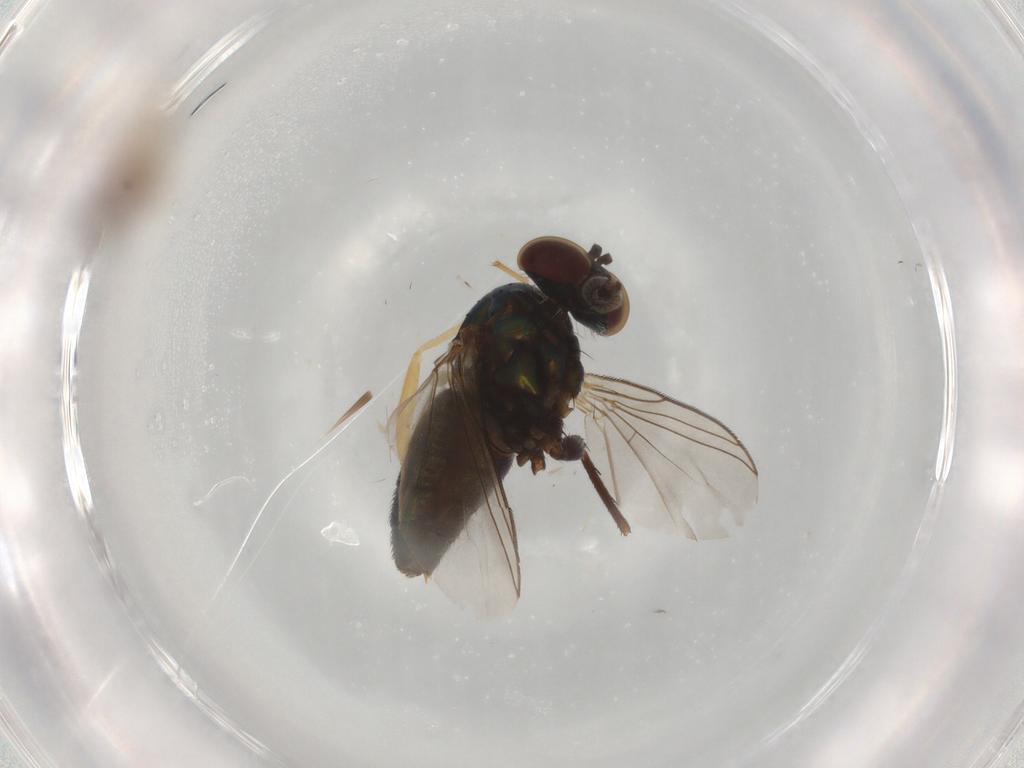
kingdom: Animalia
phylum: Arthropoda
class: Insecta
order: Diptera
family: Dolichopodidae
